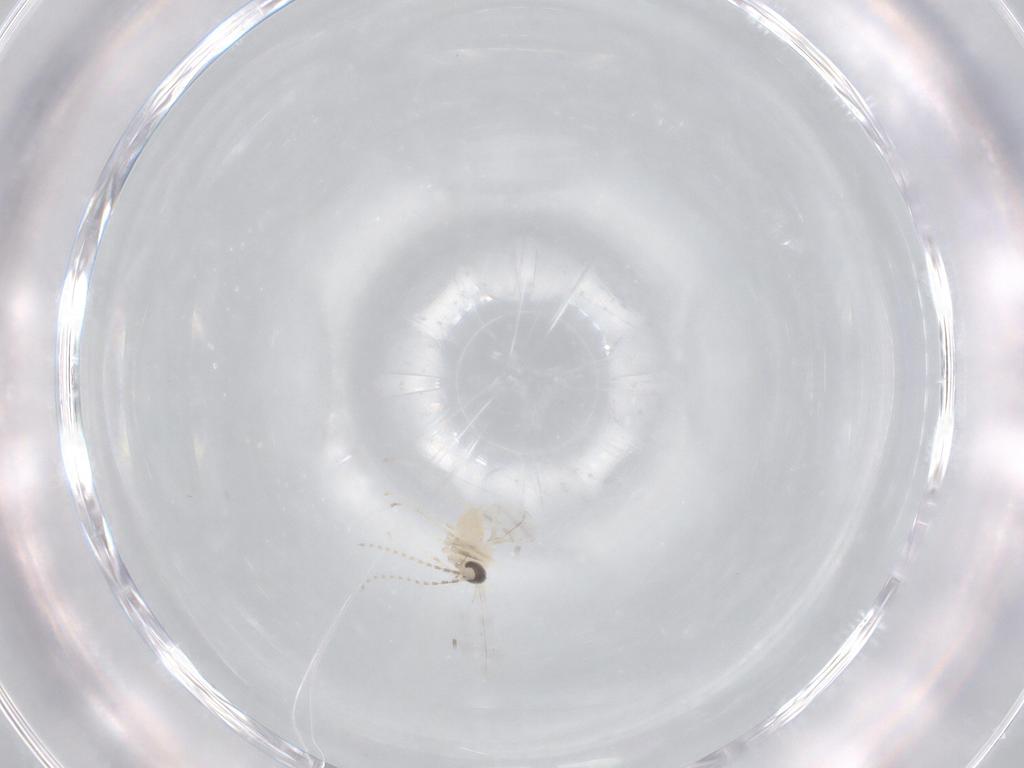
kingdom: Animalia
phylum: Arthropoda
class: Insecta
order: Diptera
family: Cecidomyiidae
